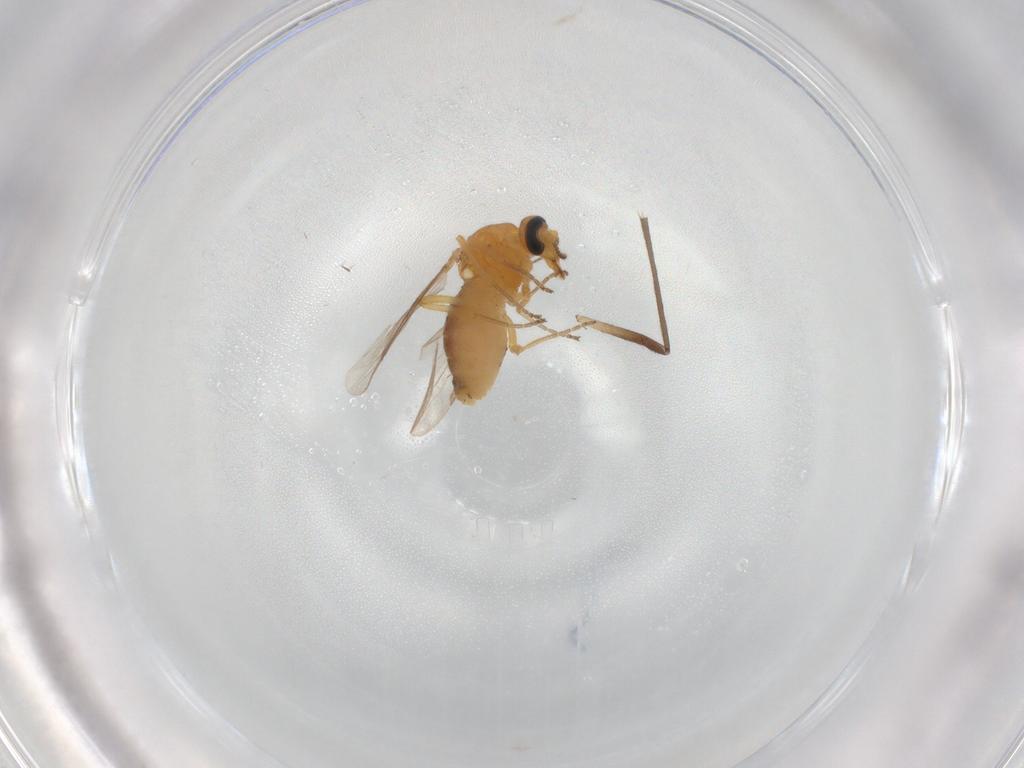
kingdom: Animalia
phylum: Arthropoda
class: Insecta
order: Diptera
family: Ceratopogonidae
